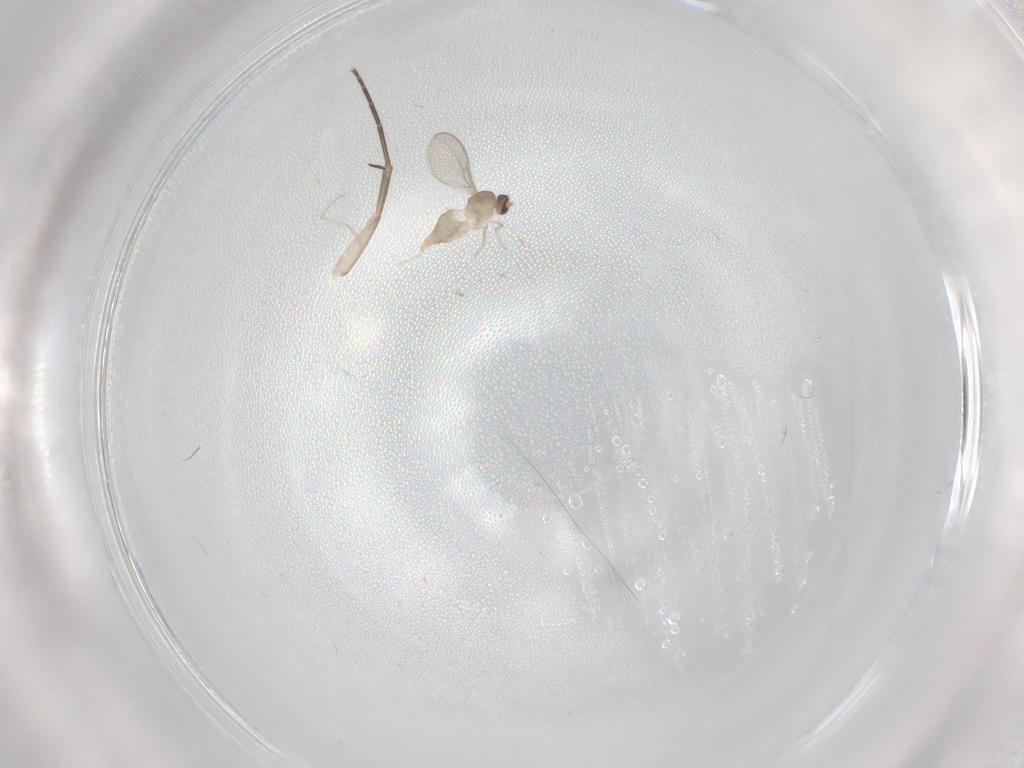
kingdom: Animalia
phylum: Arthropoda
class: Insecta
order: Diptera
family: Cecidomyiidae
